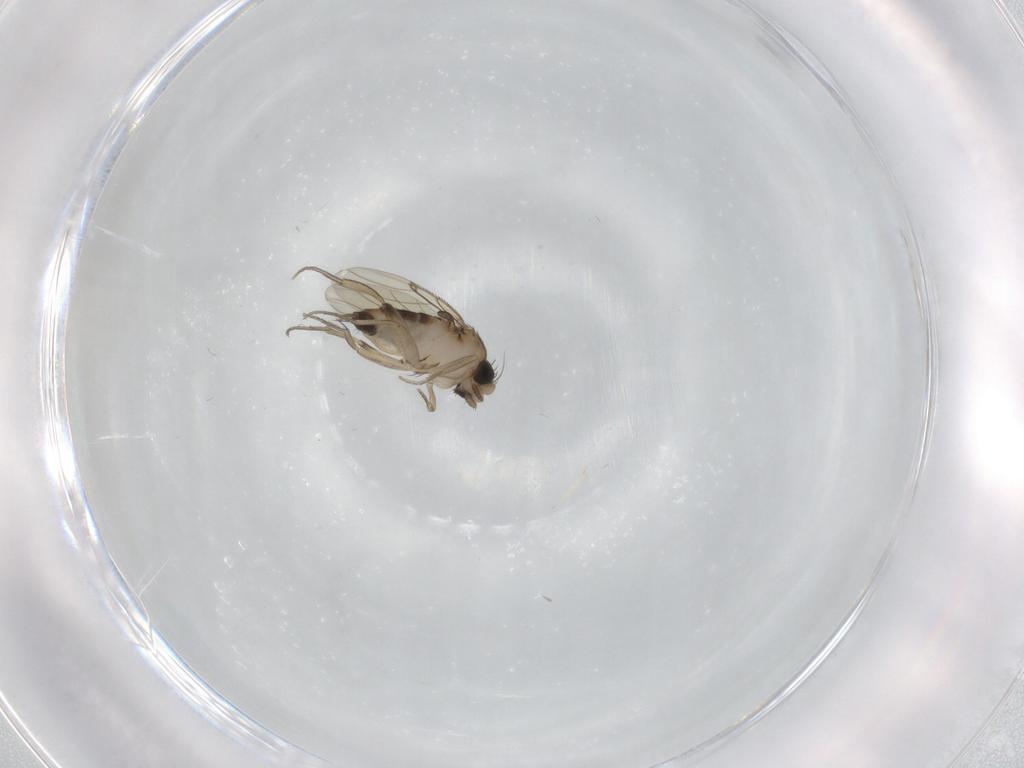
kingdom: Animalia
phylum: Arthropoda
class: Insecta
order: Diptera
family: Phoridae
